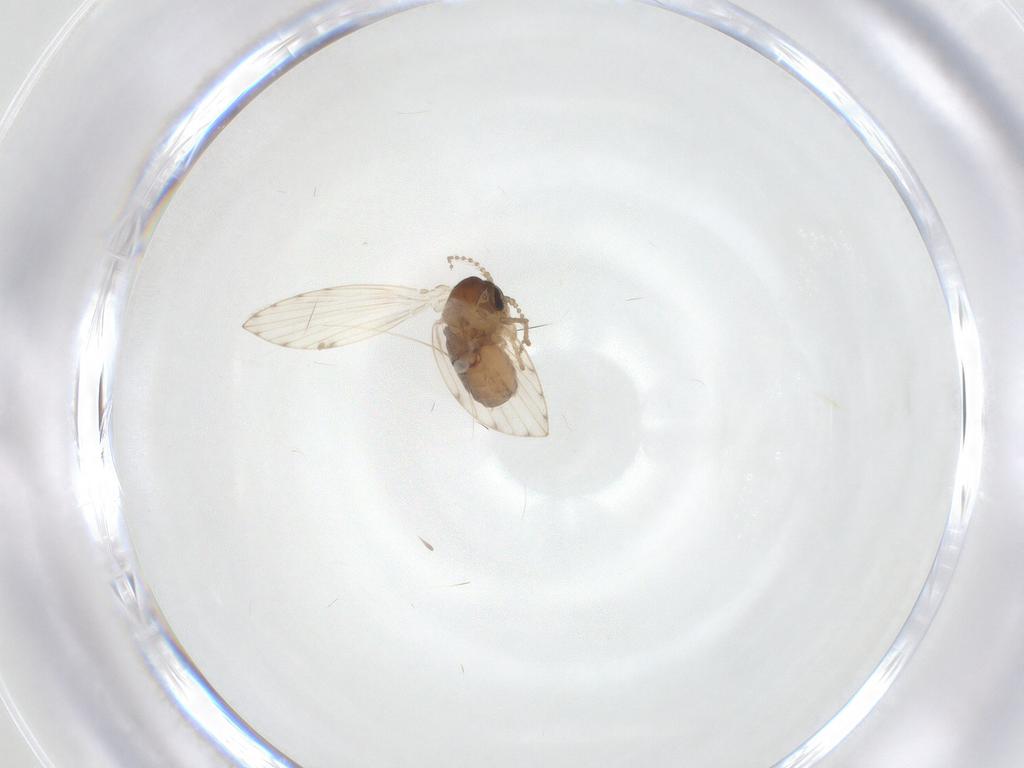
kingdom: Animalia
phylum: Arthropoda
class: Insecta
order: Diptera
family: Psychodidae
